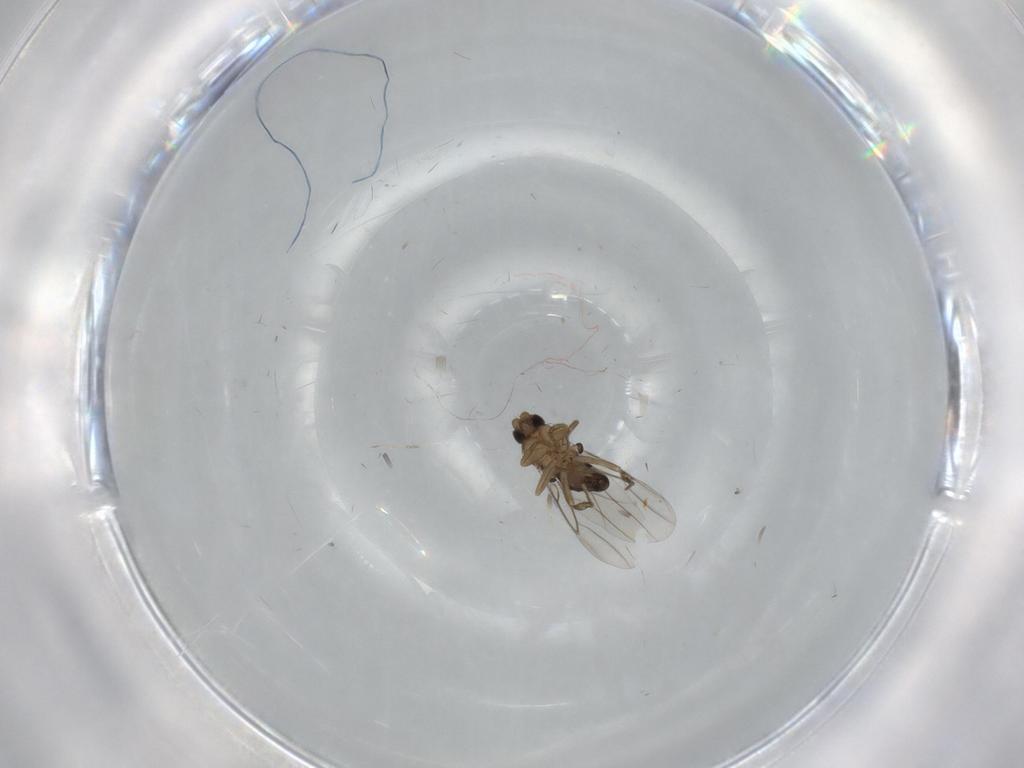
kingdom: Animalia
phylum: Arthropoda
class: Insecta
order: Diptera
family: Phoridae
